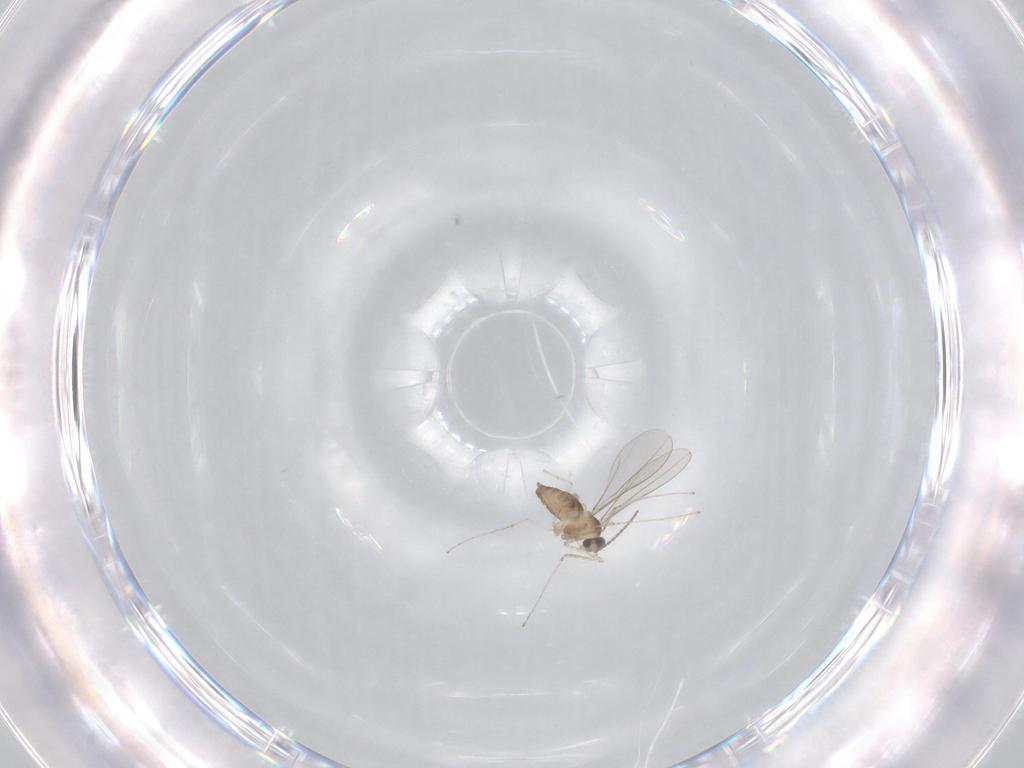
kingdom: Animalia
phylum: Arthropoda
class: Insecta
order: Diptera
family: Cecidomyiidae
